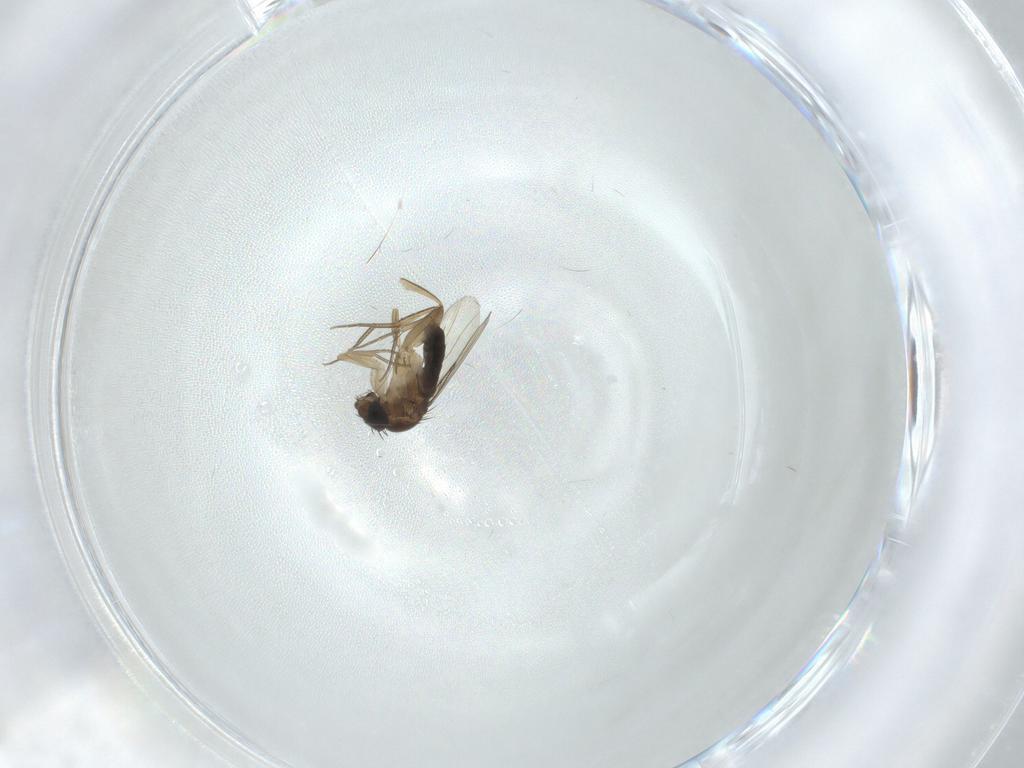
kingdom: Animalia
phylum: Arthropoda
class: Insecta
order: Diptera
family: Phoridae
